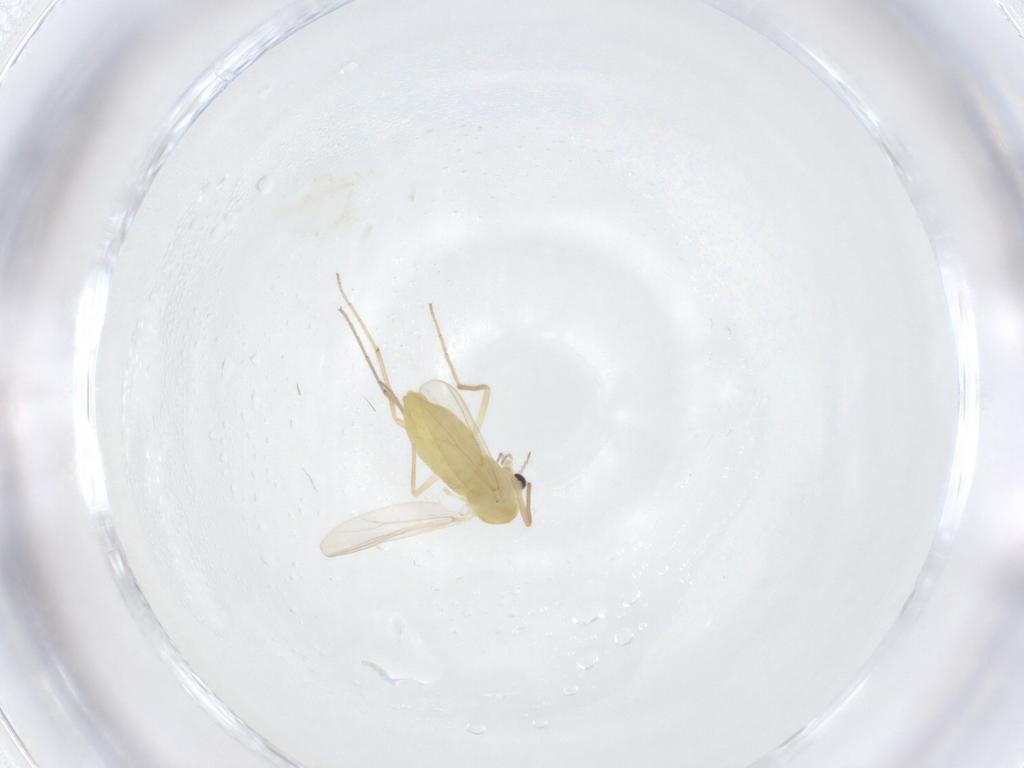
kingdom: Animalia
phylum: Arthropoda
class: Insecta
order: Diptera
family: Chironomidae
